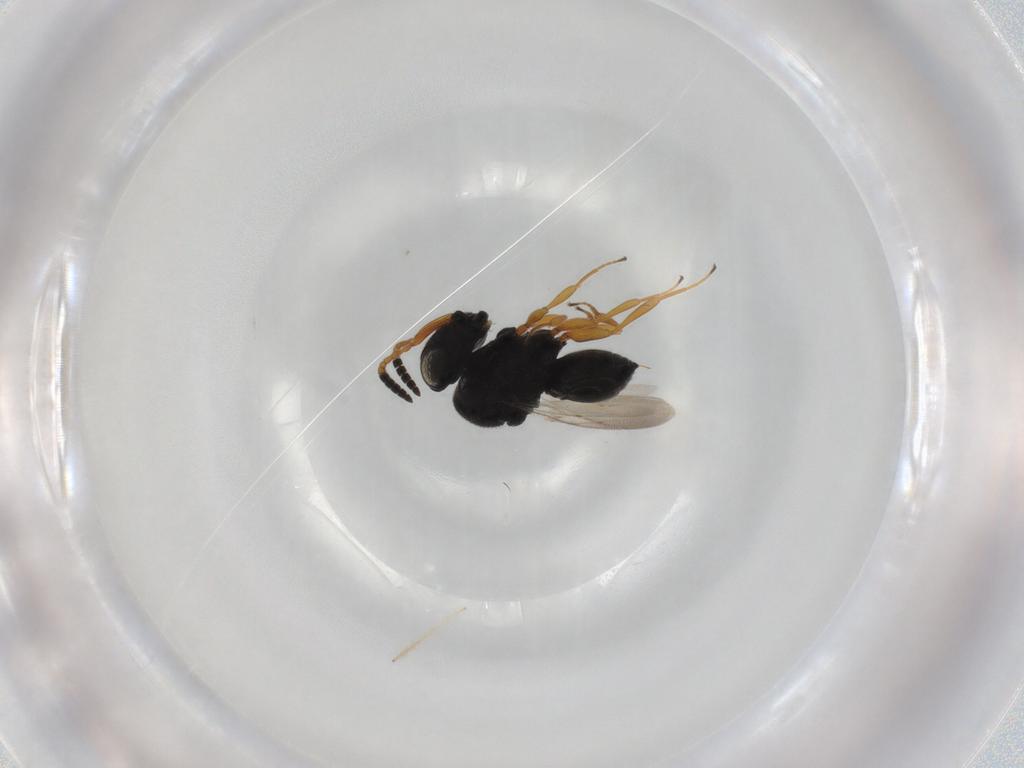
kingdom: Animalia
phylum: Arthropoda
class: Insecta
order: Hymenoptera
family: Scelionidae
